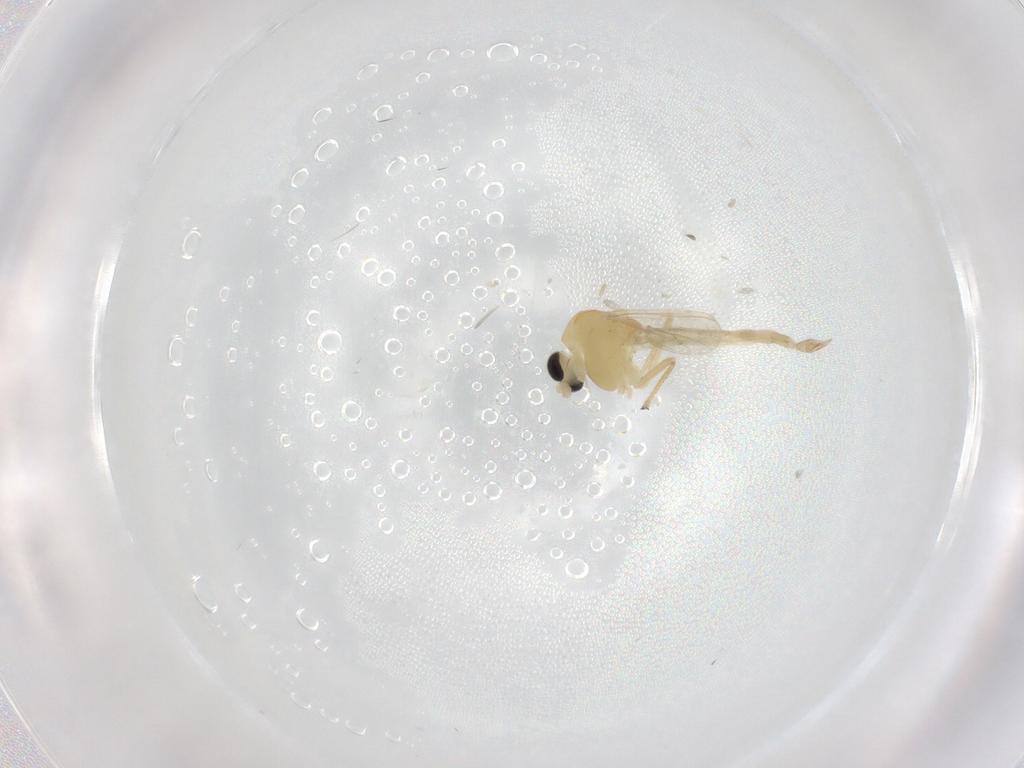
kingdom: Animalia
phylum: Arthropoda
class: Insecta
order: Diptera
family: Chironomidae
